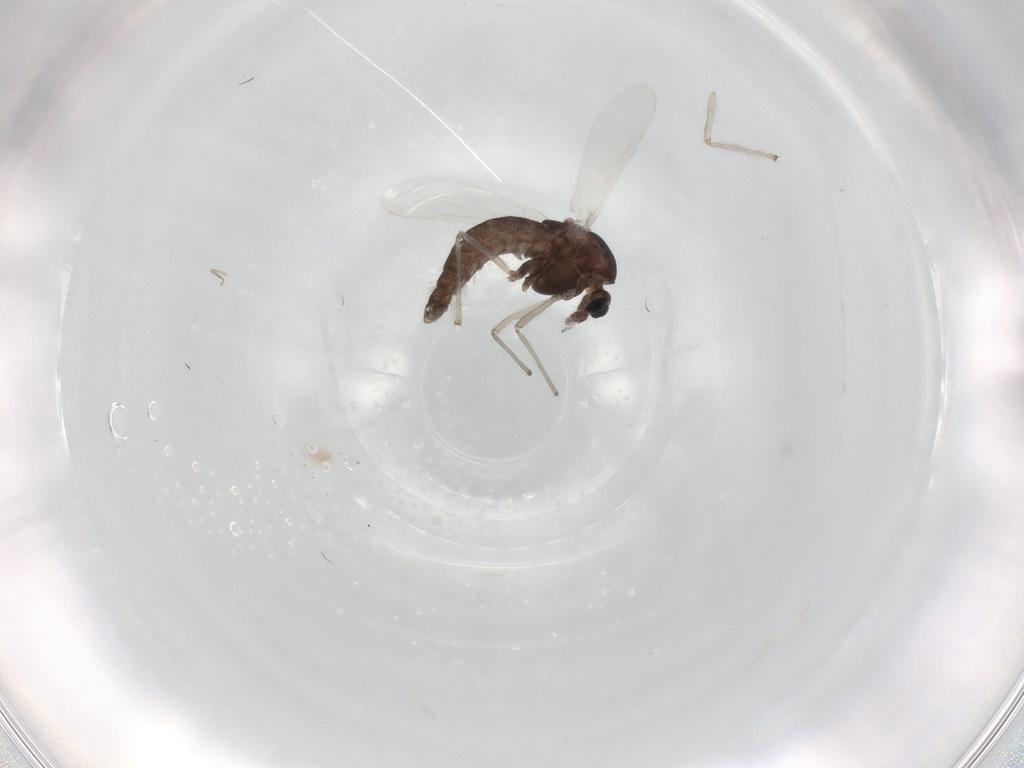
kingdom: Animalia
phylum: Arthropoda
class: Insecta
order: Diptera
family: Chironomidae
